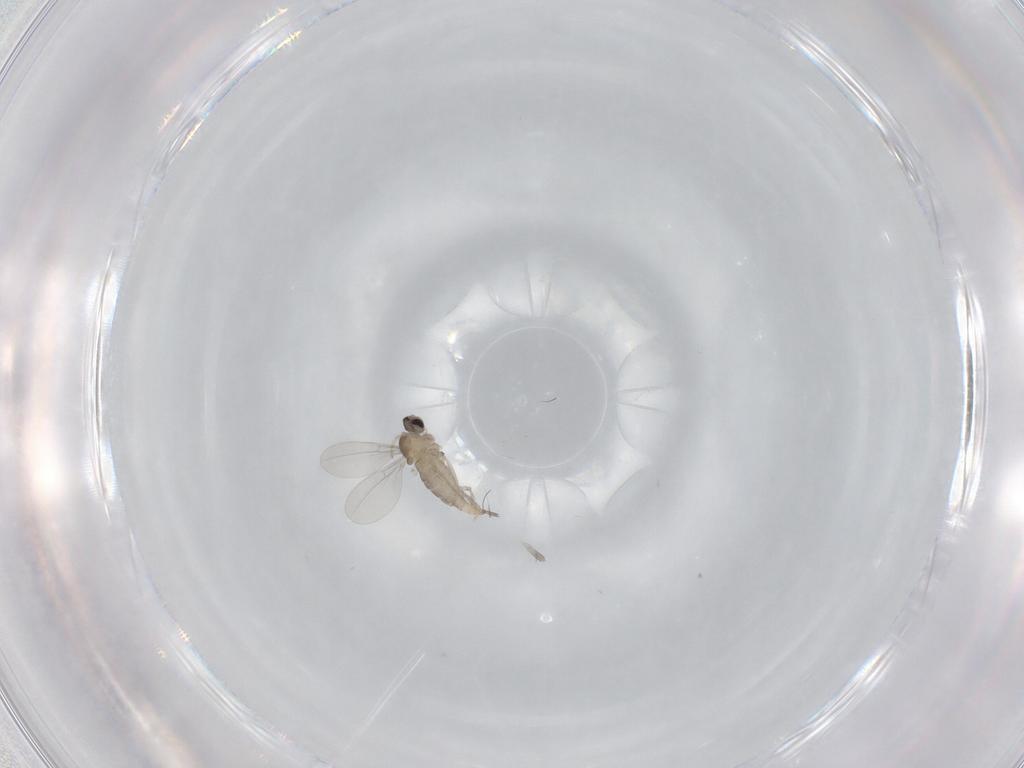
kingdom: Animalia
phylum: Arthropoda
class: Insecta
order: Diptera
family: Cecidomyiidae
